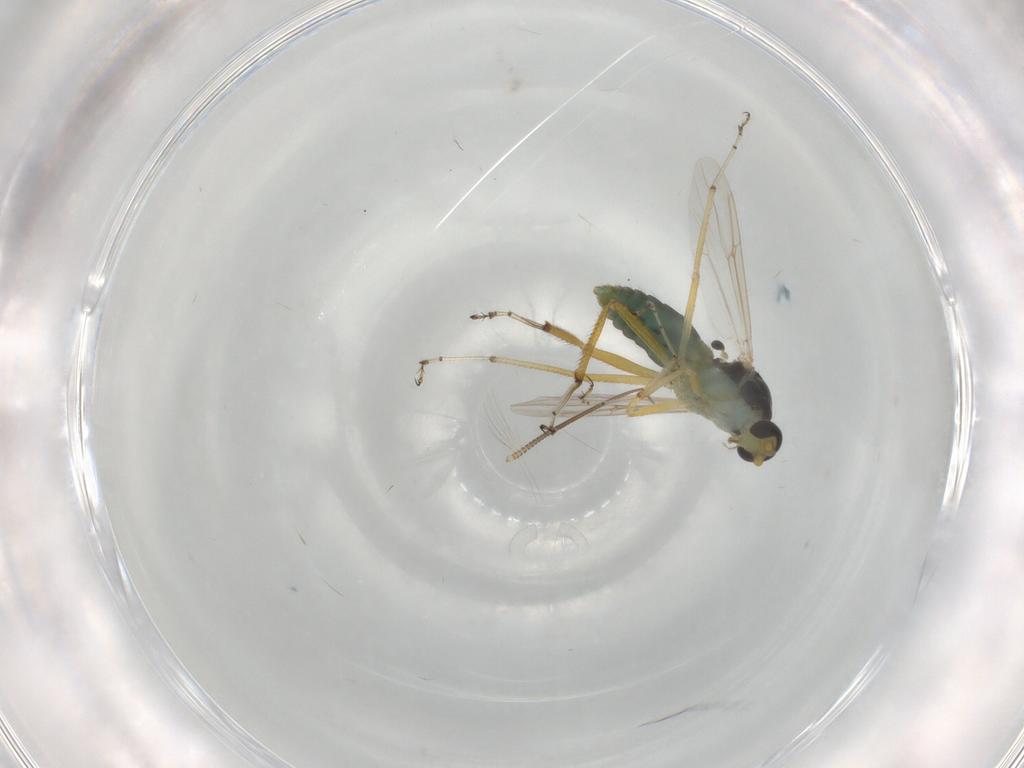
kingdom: Animalia
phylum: Arthropoda
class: Insecta
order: Diptera
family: Ceratopogonidae
